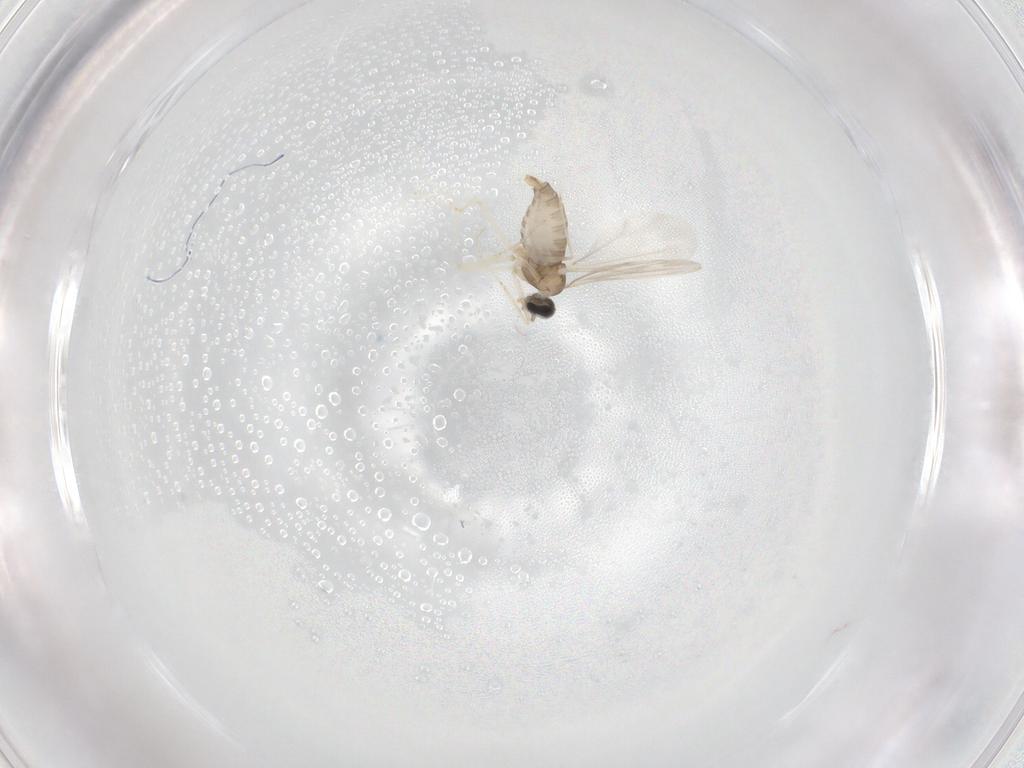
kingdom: Animalia
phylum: Arthropoda
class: Insecta
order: Diptera
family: Cecidomyiidae
